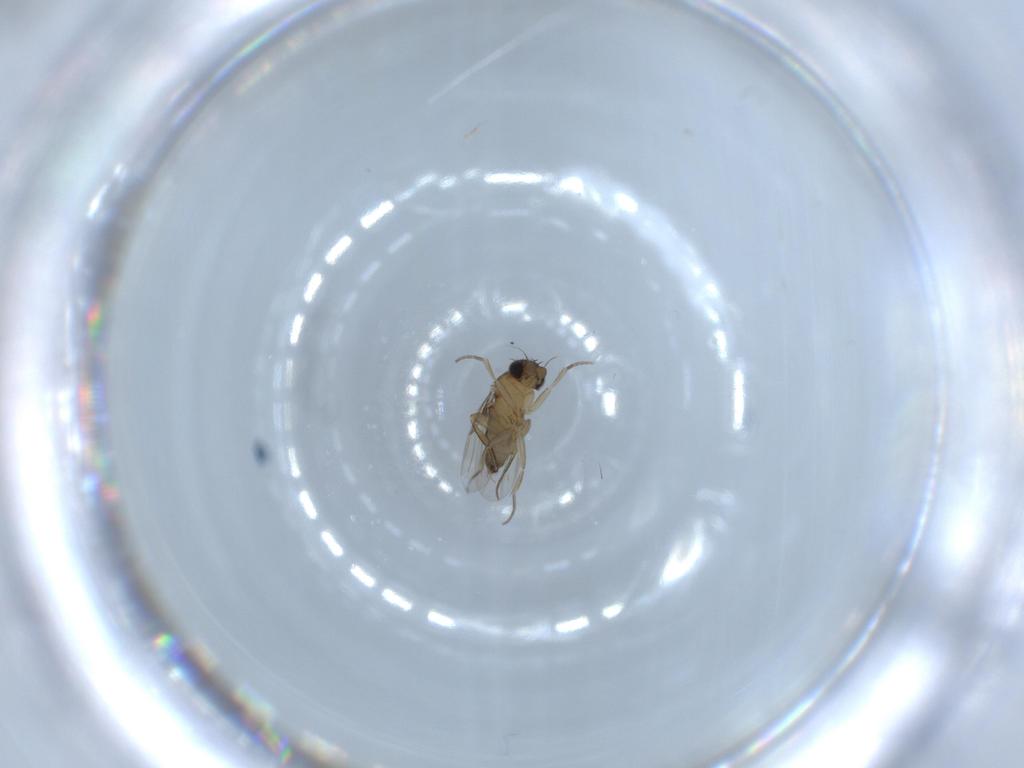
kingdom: Animalia
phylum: Arthropoda
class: Insecta
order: Diptera
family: Phoridae
